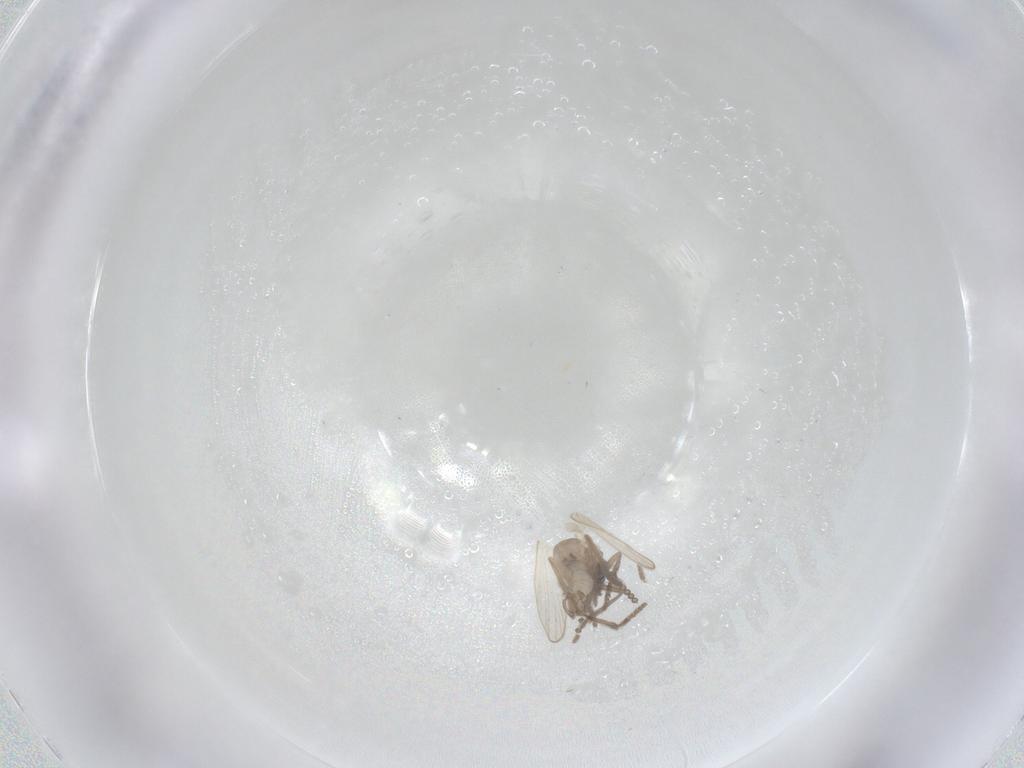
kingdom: Animalia
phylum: Arthropoda
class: Insecta
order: Diptera
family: Psychodidae
